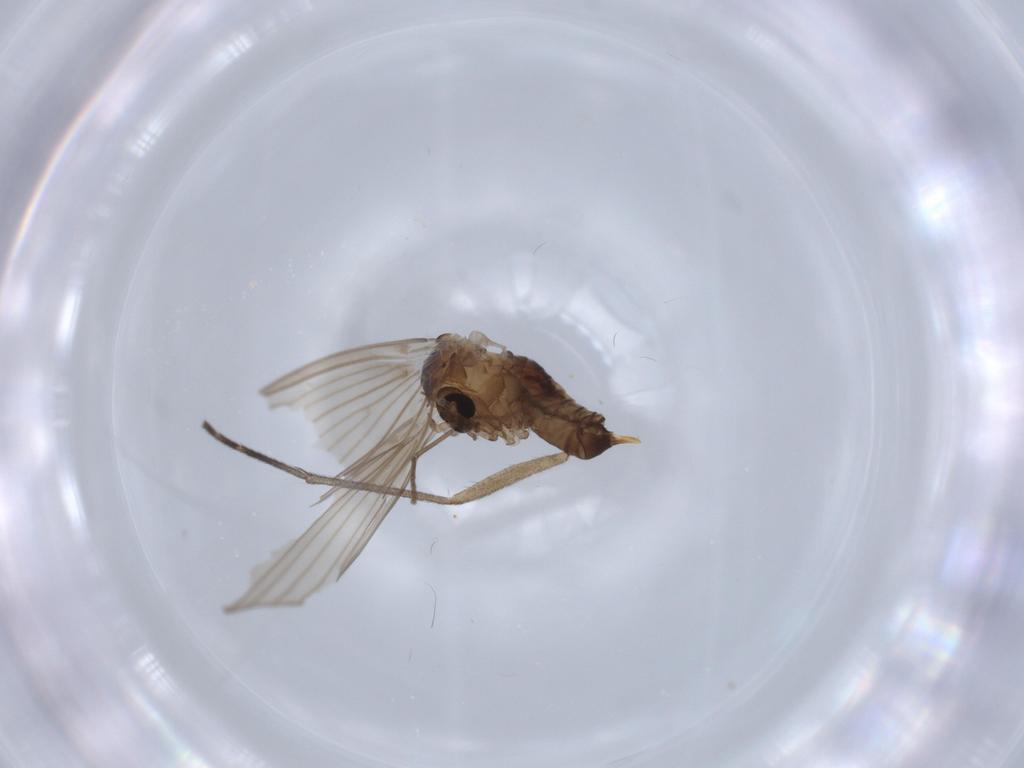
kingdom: Animalia
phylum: Arthropoda
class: Insecta
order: Diptera
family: Psychodidae
